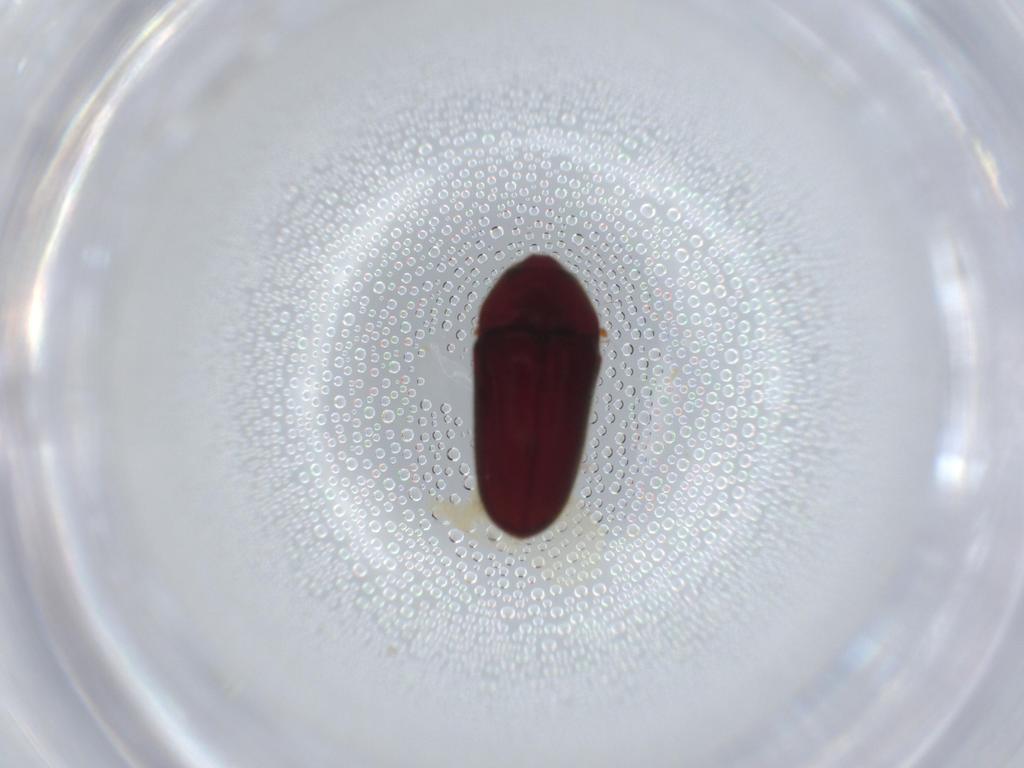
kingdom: Animalia
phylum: Arthropoda
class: Insecta
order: Coleoptera
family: Throscidae
